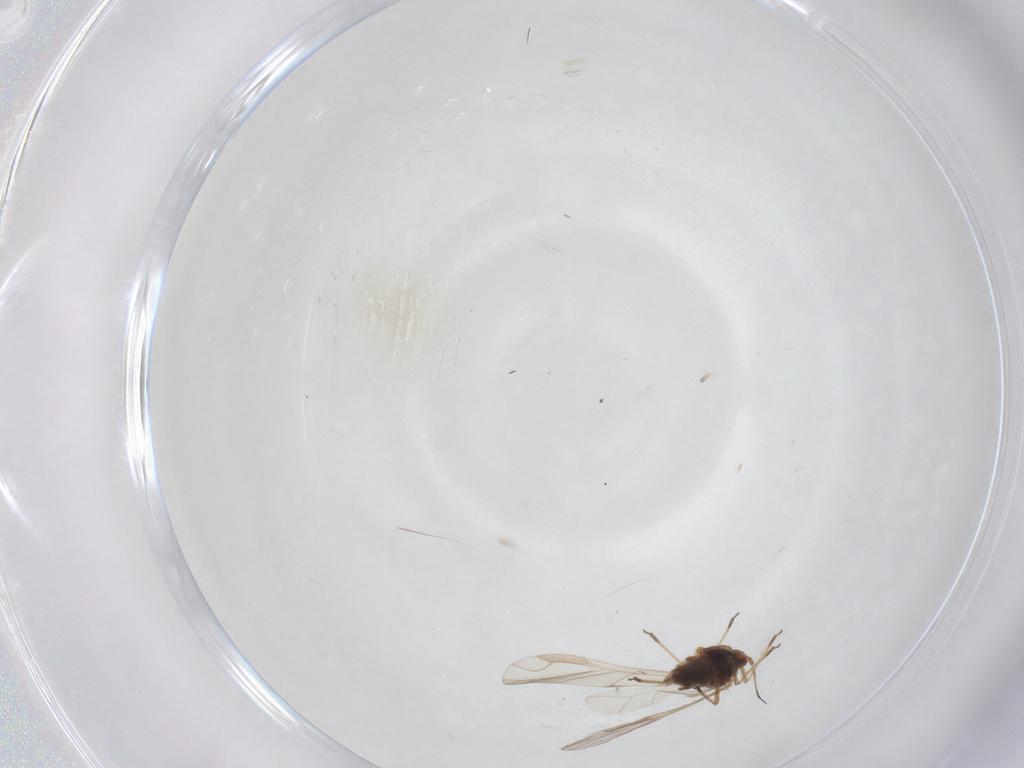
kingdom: Animalia
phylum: Arthropoda
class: Insecta
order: Hemiptera
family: Aphididae
